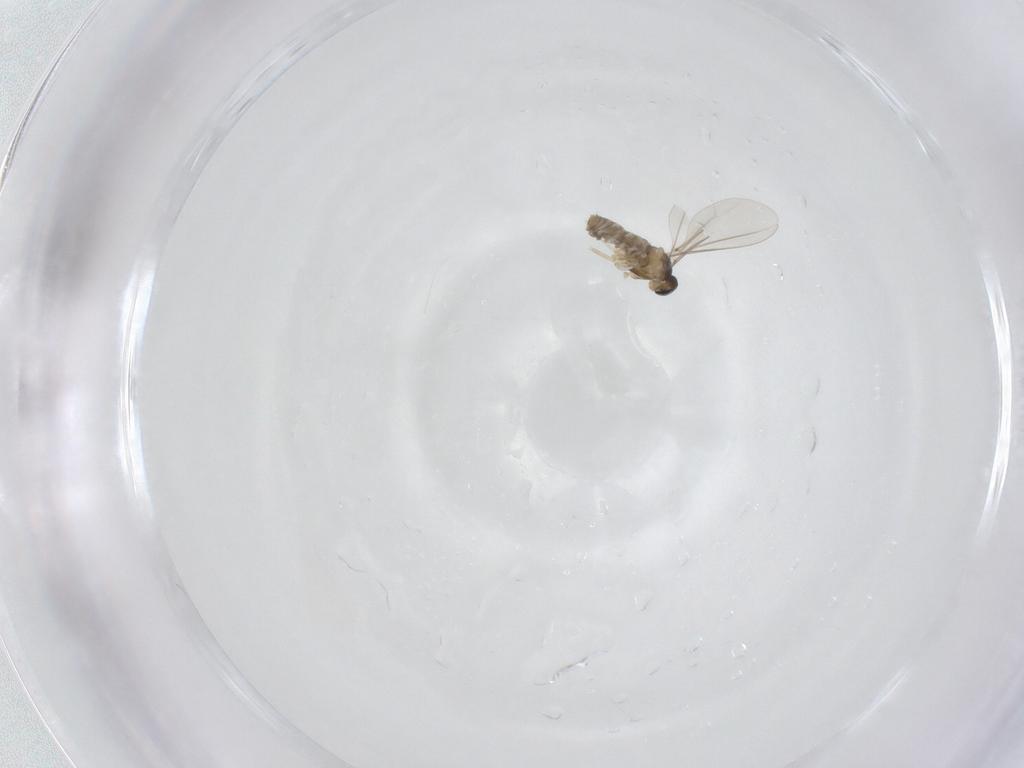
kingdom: Animalia
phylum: Arthropoda
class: Insecta
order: Diptera
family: Cecidomyiidae
